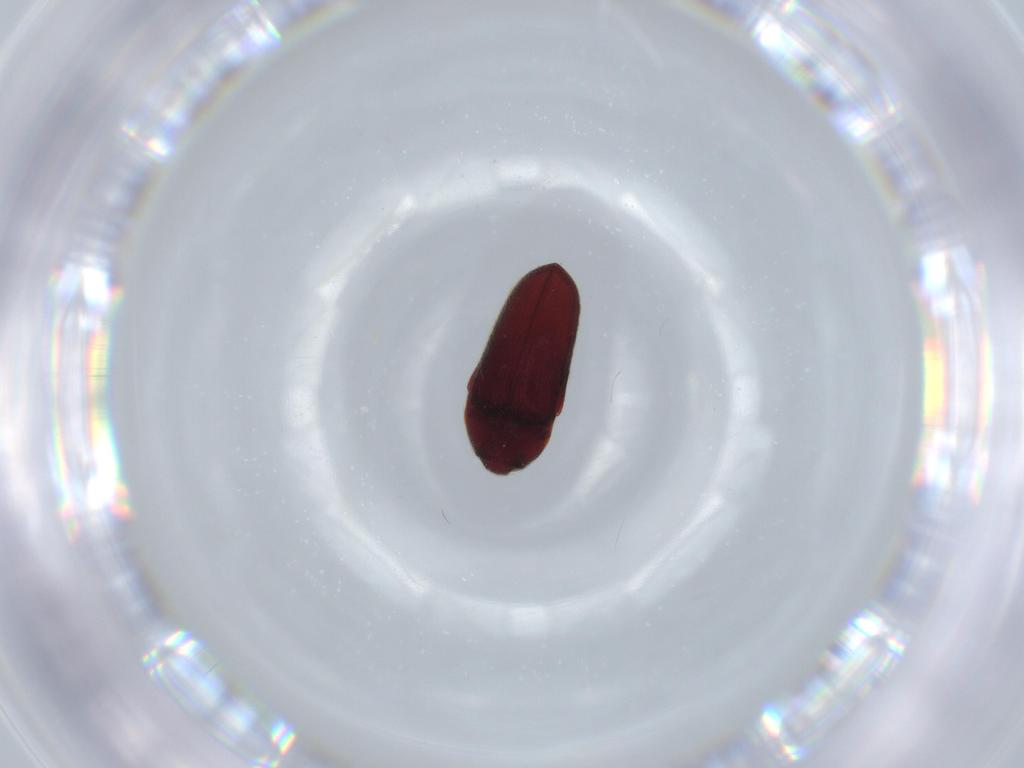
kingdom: Animalia
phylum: Arthropoda
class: Insecta
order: Coleoptera
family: Throscidae
